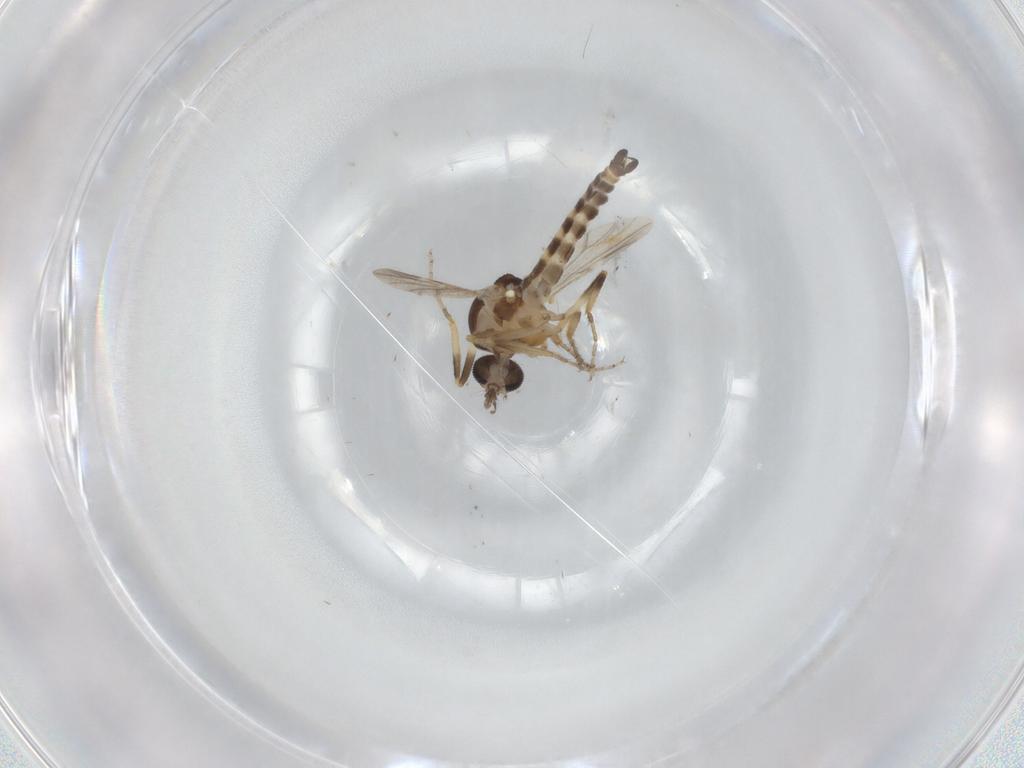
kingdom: Animalia
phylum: Arthropoda
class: Insecta
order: Diptera
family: Ceratopogonidae
